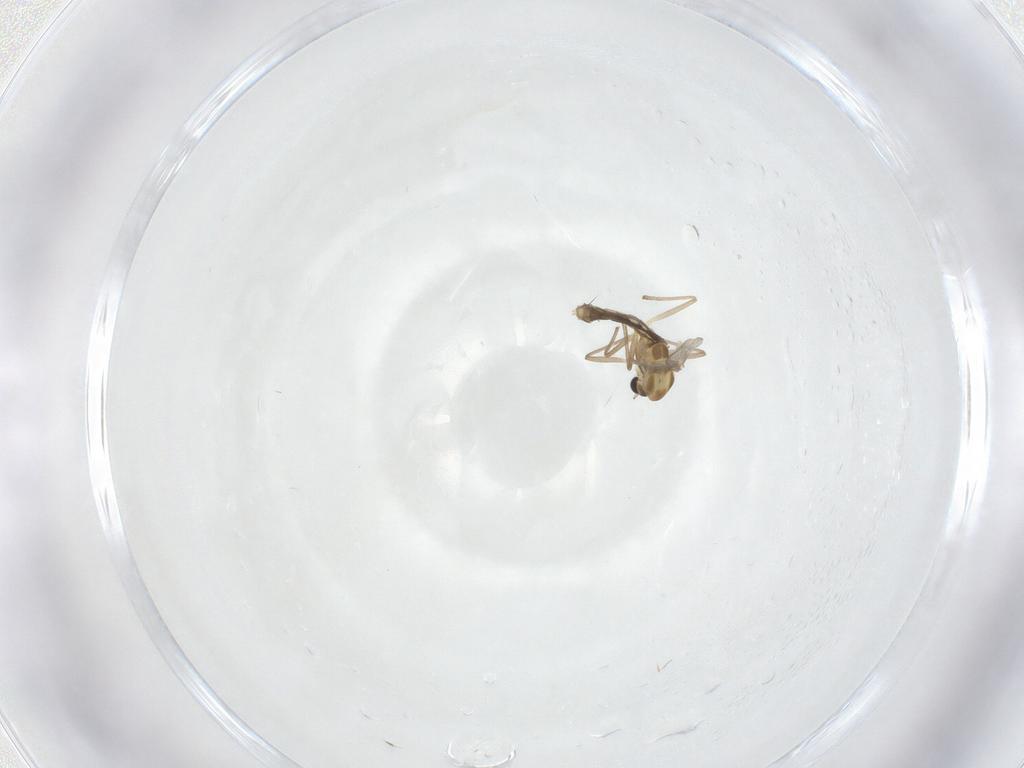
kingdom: Animalia
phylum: Arthropoda
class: Insecta
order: Diptera
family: Chironomidae
